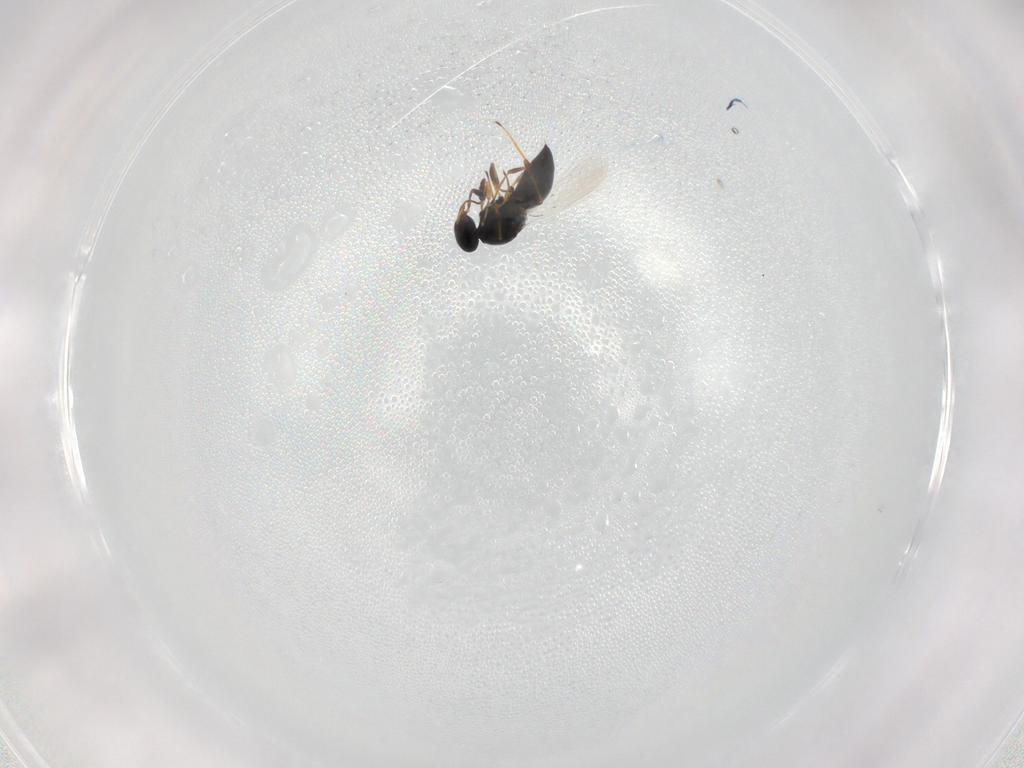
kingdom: Animalia
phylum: Arthropoda
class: Insecta
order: Hymenoptera
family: Platygastridae
